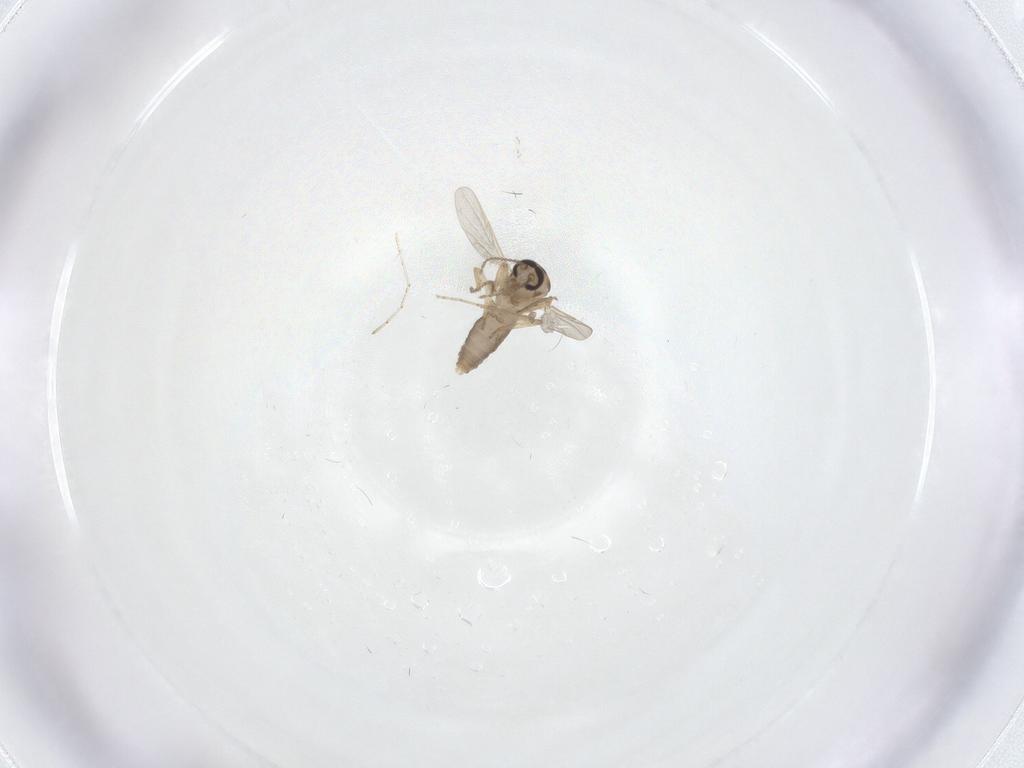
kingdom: Animalia
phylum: Arthropoda
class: Insecta
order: Diptera
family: Ceratopogonidae
